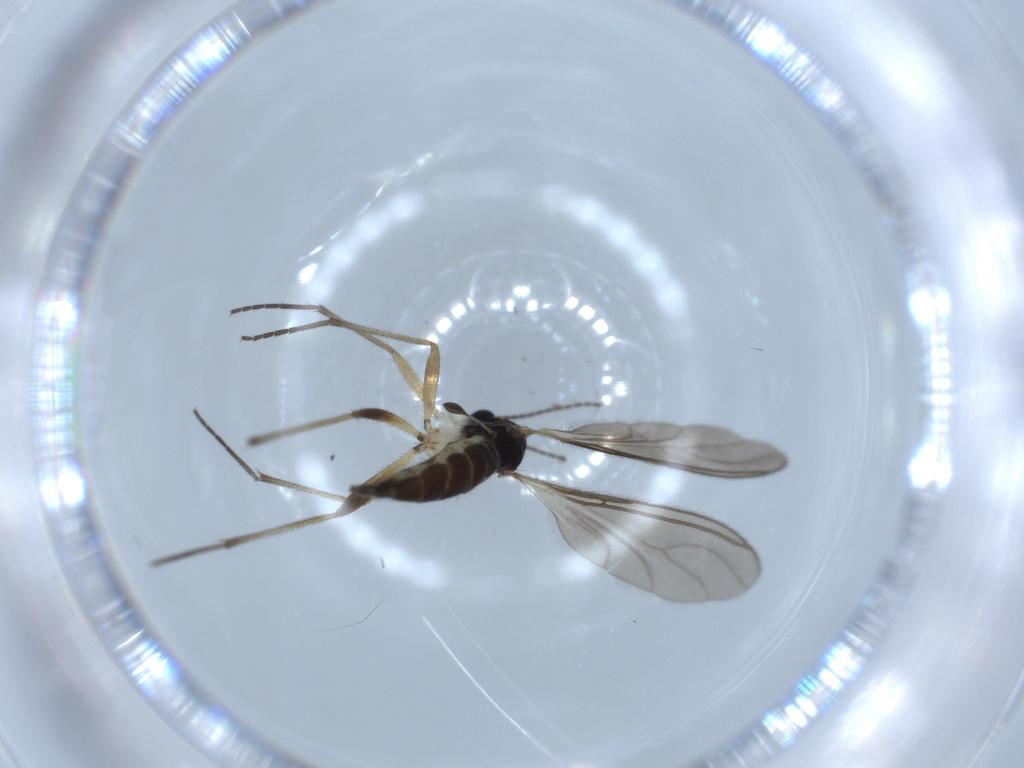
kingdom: Animalia
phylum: Arthropoda
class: Insecta
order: Diptera
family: Sciaridae
